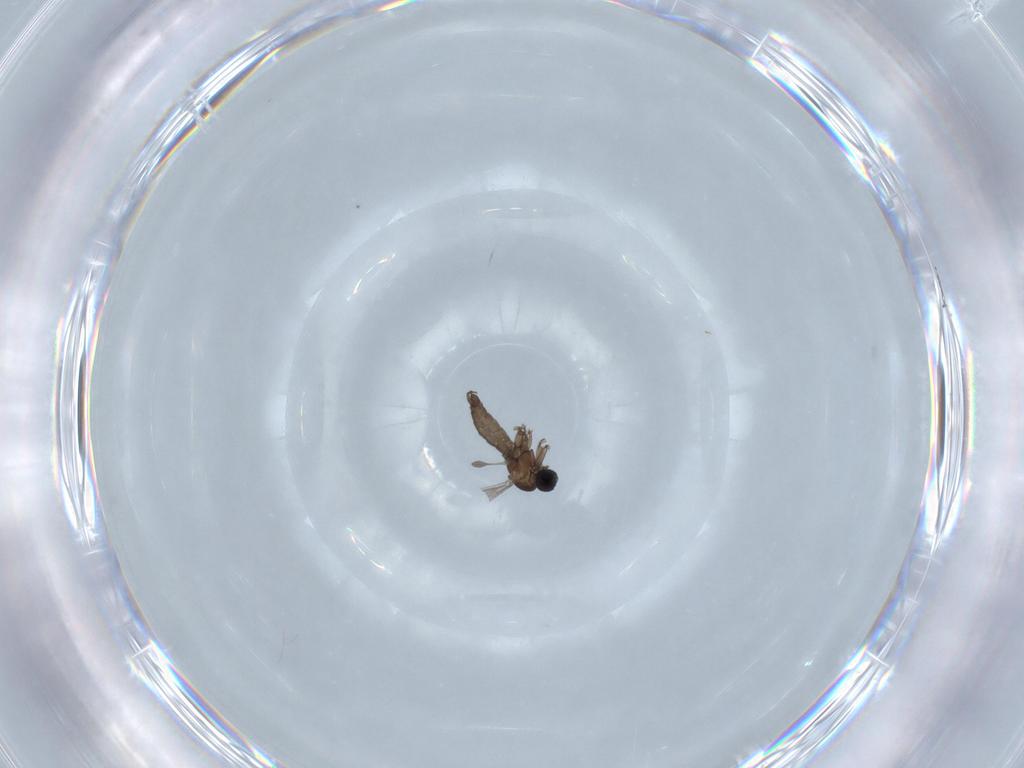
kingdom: Animalia
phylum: Arthropoda
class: Insecta
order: Diptera
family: Sciaridae
